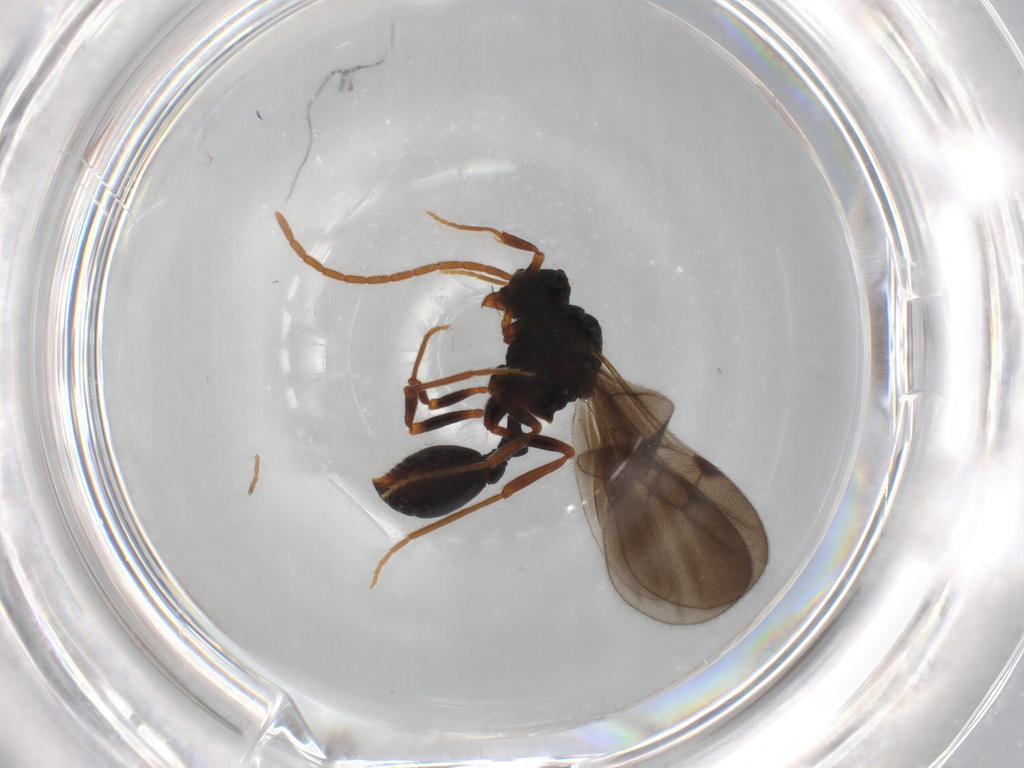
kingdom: Animalia
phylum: Arthropoda
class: Insecta
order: Hymenoptera
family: Formicidae
